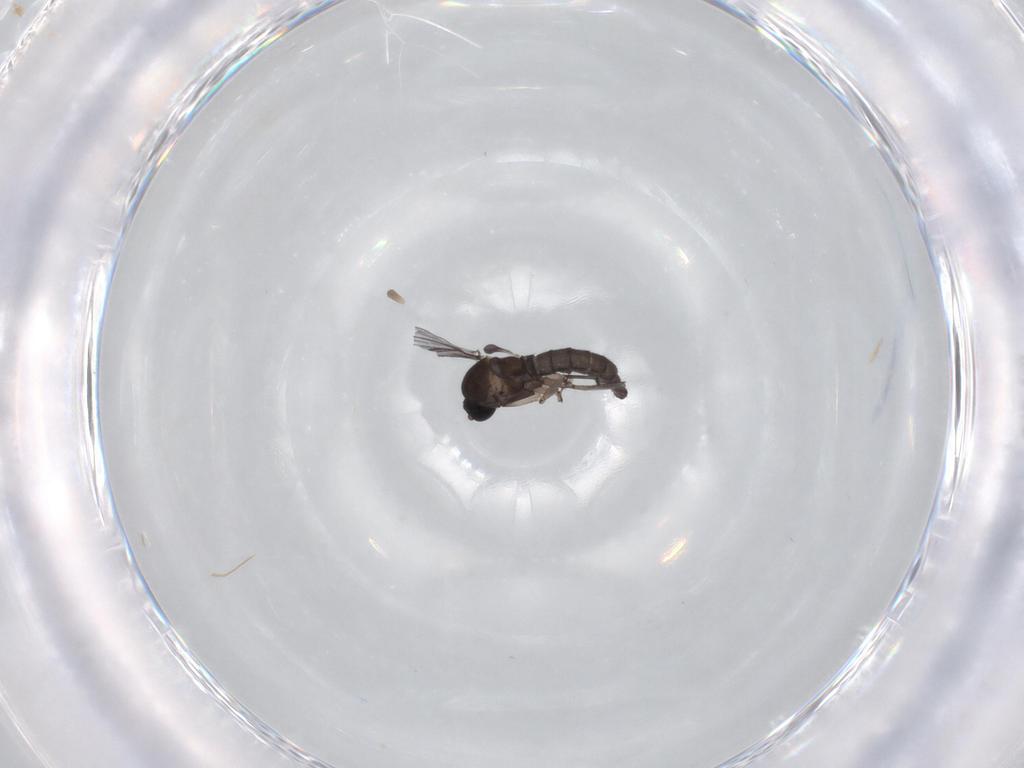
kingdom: Animalia
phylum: Arthropoda
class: Insecta
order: Diptera
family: Sciaridae
